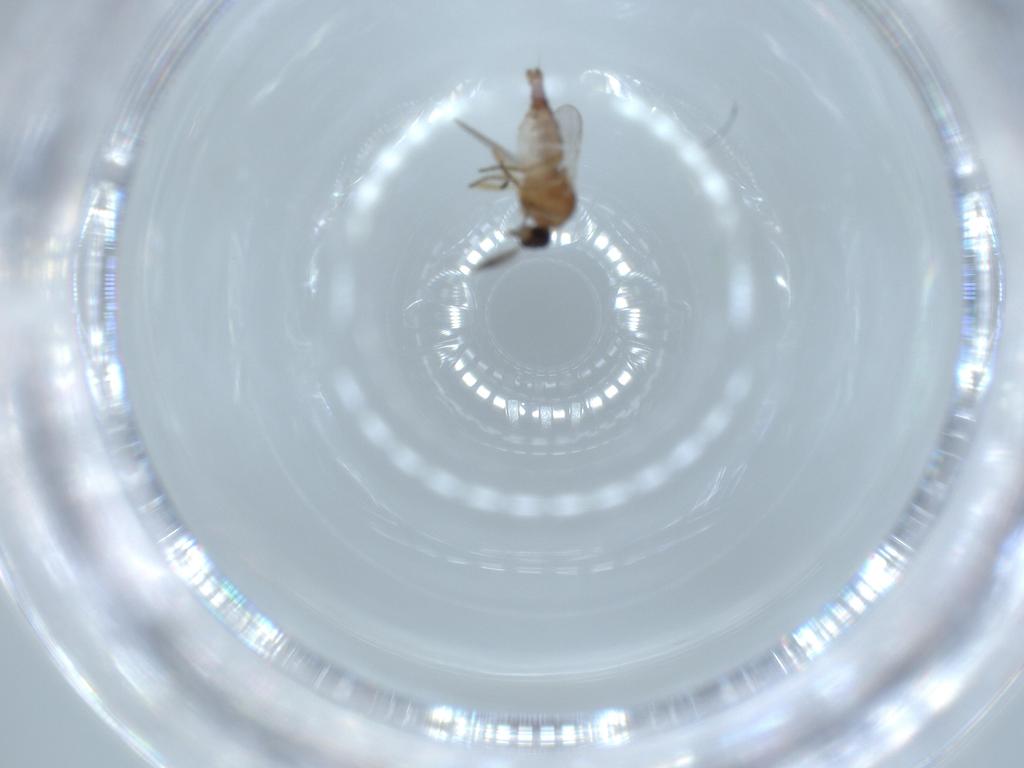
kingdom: Animalia
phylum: Arthropoda
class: Insecta
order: Diptera
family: Ceratopogonidae
